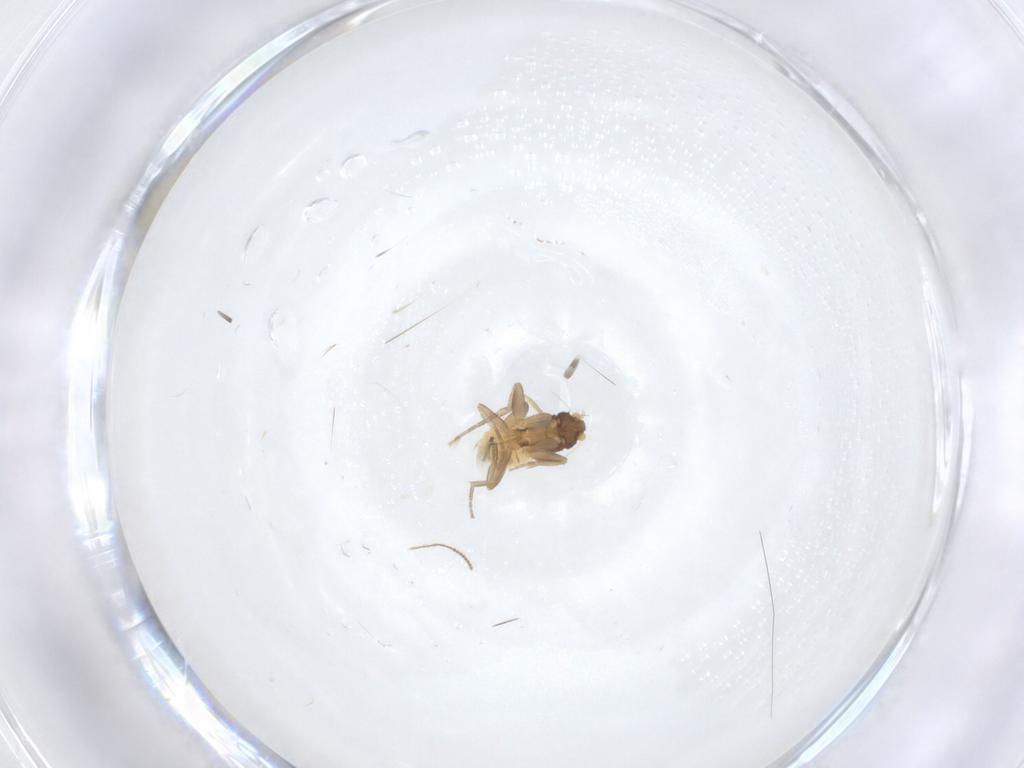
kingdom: Animalia
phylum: Arthropoda
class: Insecta
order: Diptera
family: Phoridae
